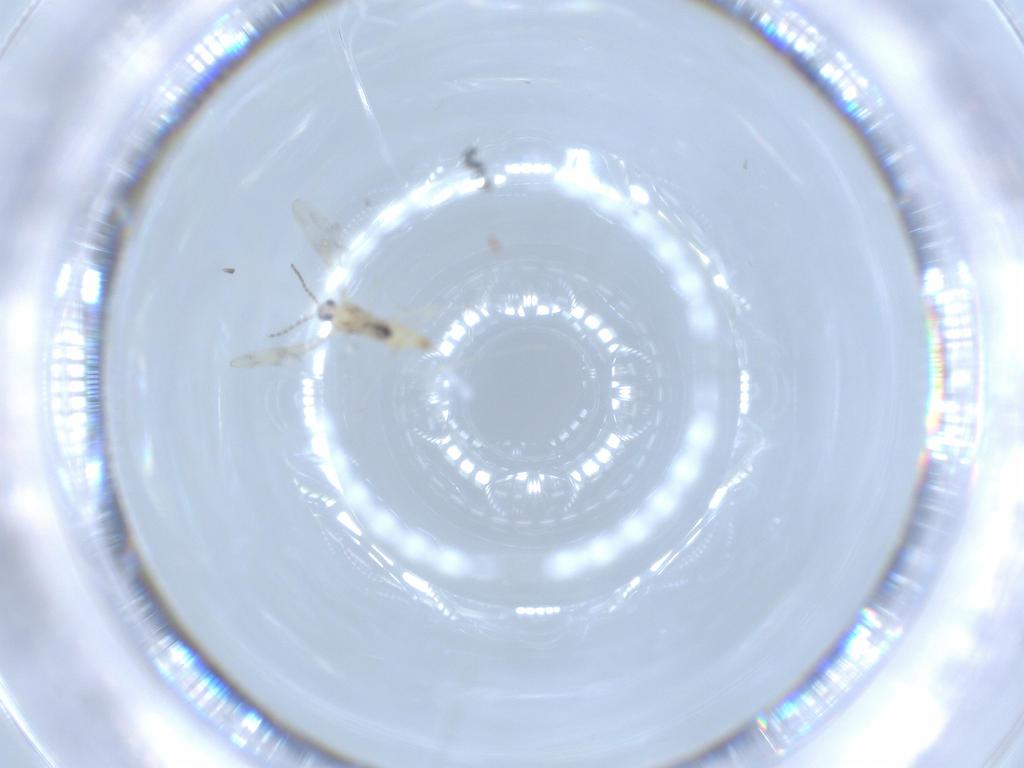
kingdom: Animalia
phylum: Arthropoda
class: Insecta
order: Diptera
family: Cecidomyiidae
